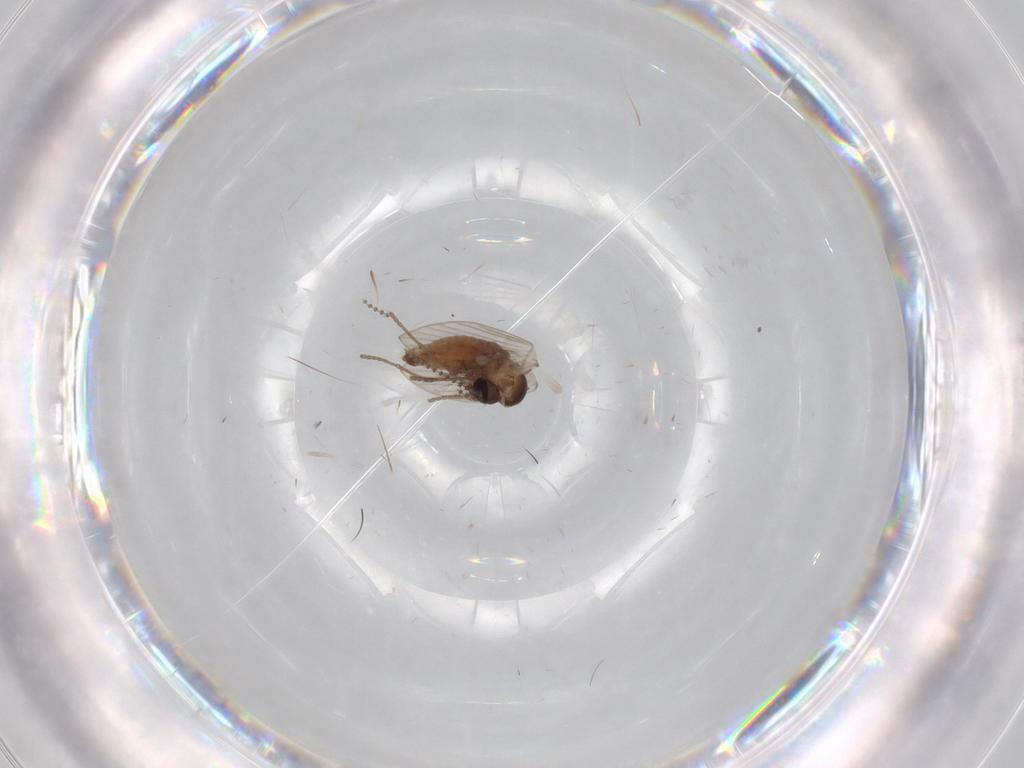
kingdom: Animalia
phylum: Arthropoda
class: Insecta
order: Diptera
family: Psychodidae
